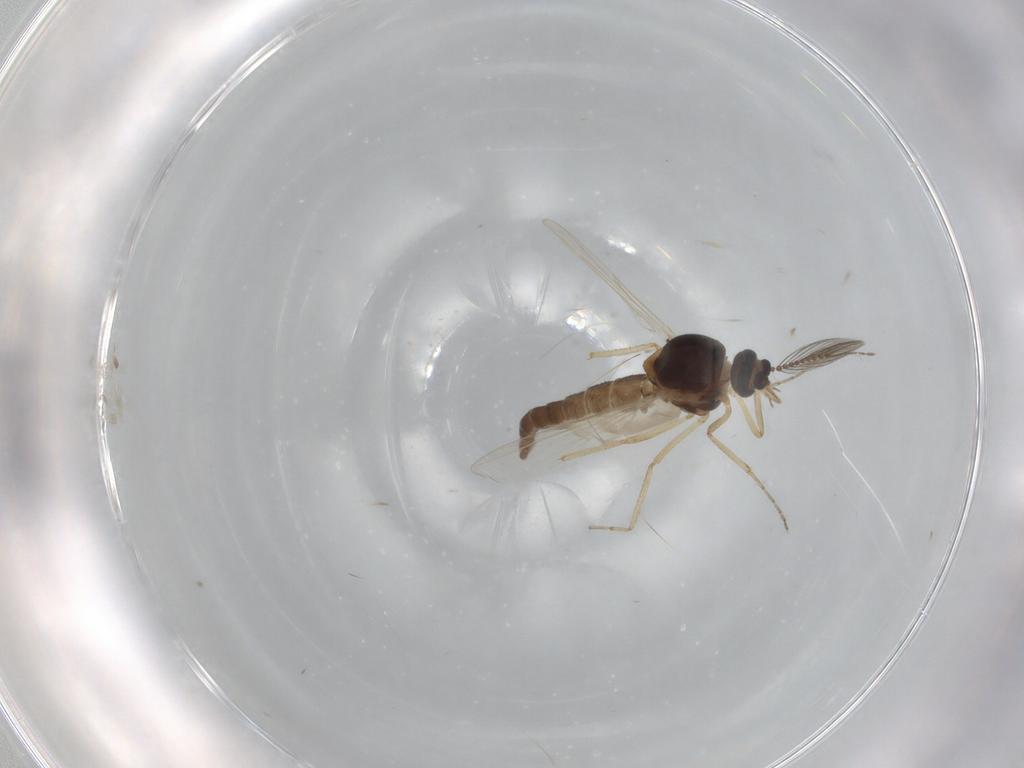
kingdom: Animalia
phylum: Arthropoda
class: Insecta
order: Diptera
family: Ceratopogonidae
